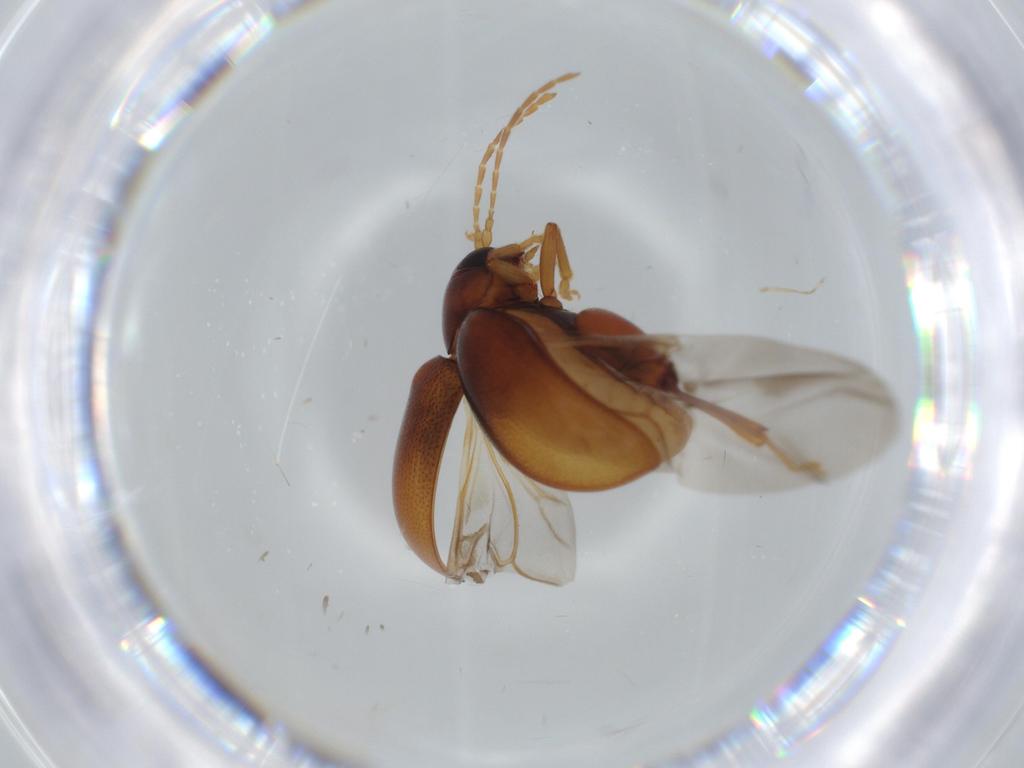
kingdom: Animalia
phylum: Arthropoda
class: Insecta
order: Coleoptera
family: Chrysomelidae
